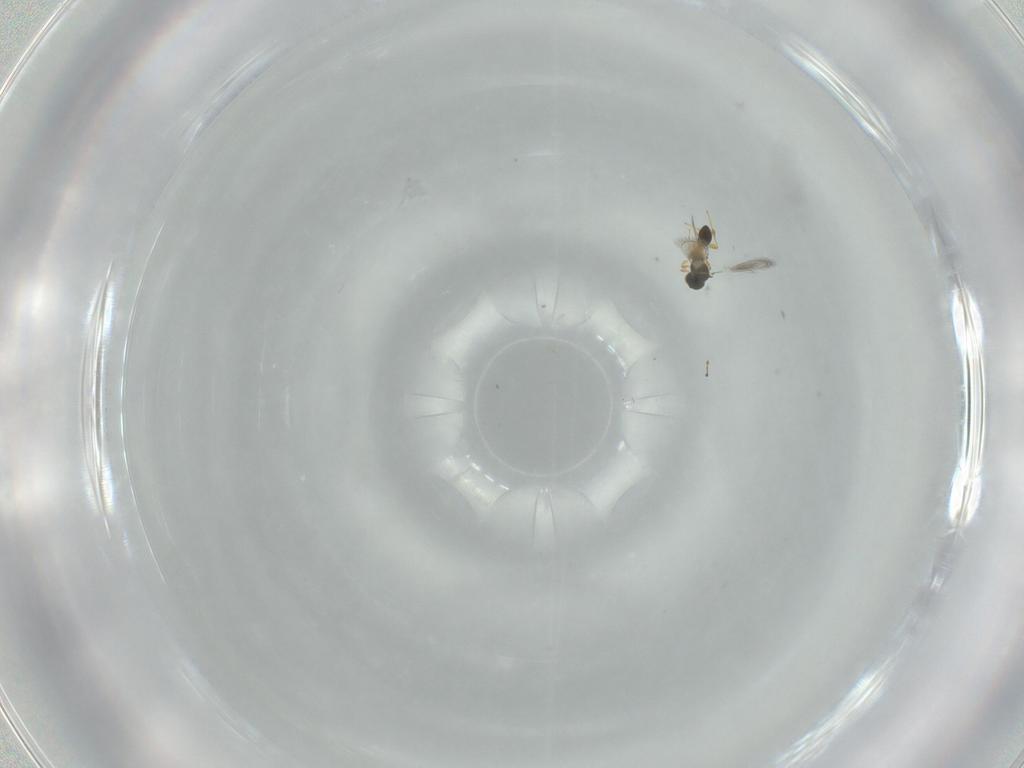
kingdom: Animalia
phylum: Arthropoda
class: Insecta
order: Hymenoptera
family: Platygastridae
